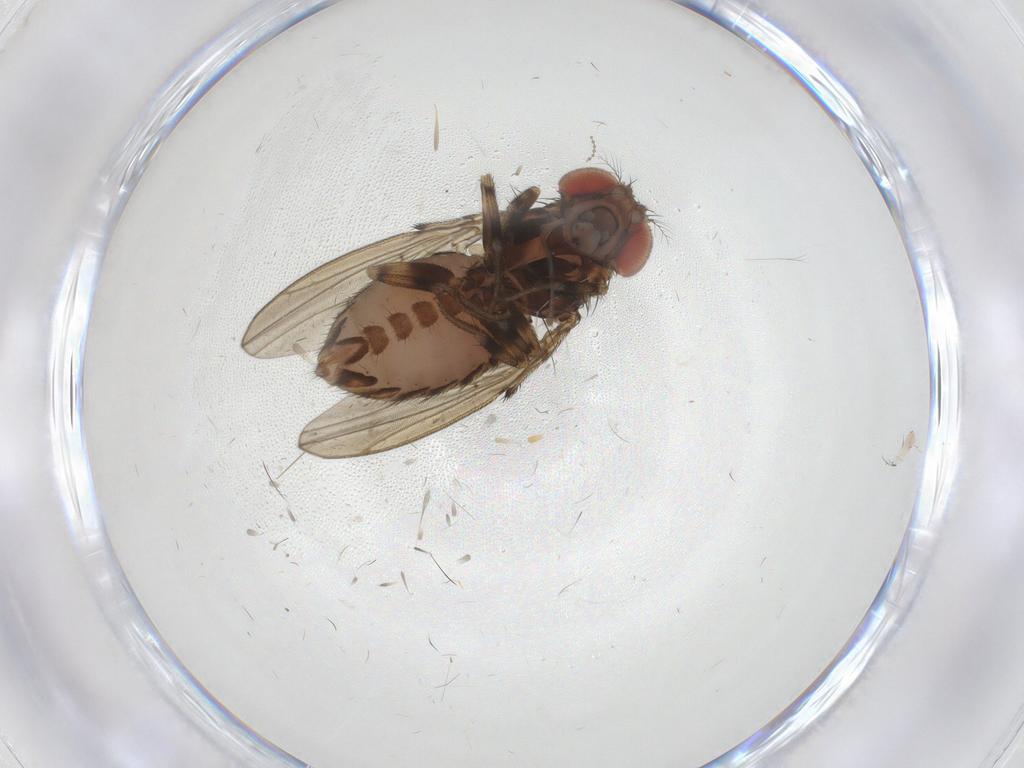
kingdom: Animalia
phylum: Arthropoda
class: Insecta
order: Diptera
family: Drosophilidae
